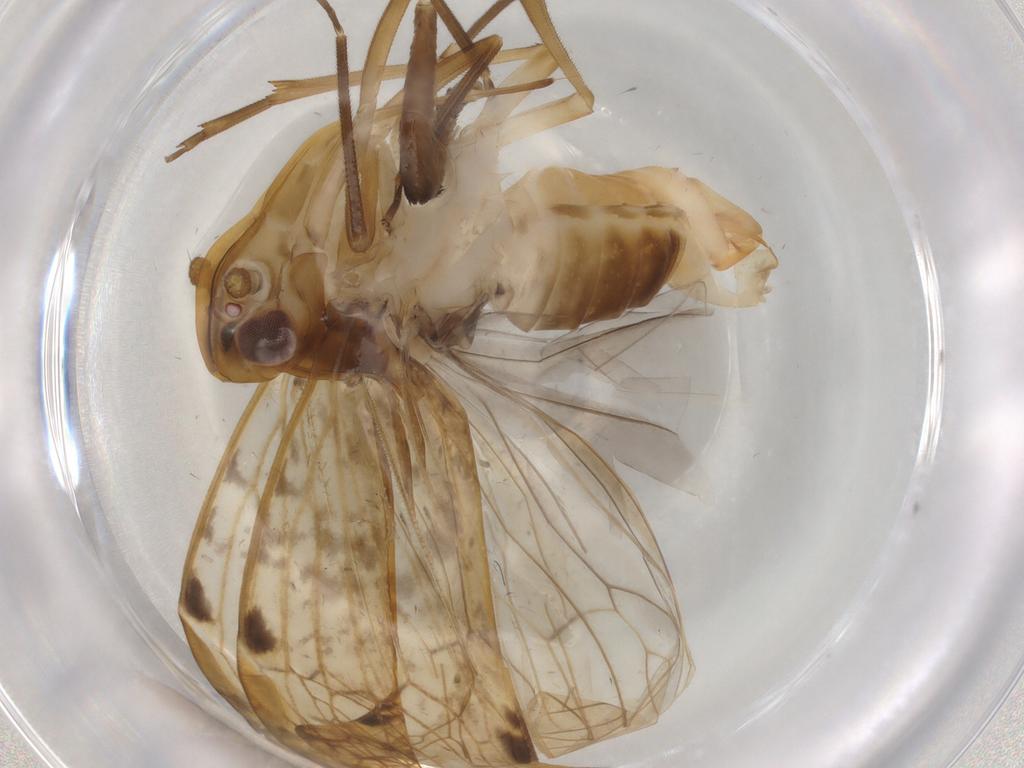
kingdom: Animalia
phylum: Arthropoda
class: Insecta
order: Hemiptera
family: Cixiidae
